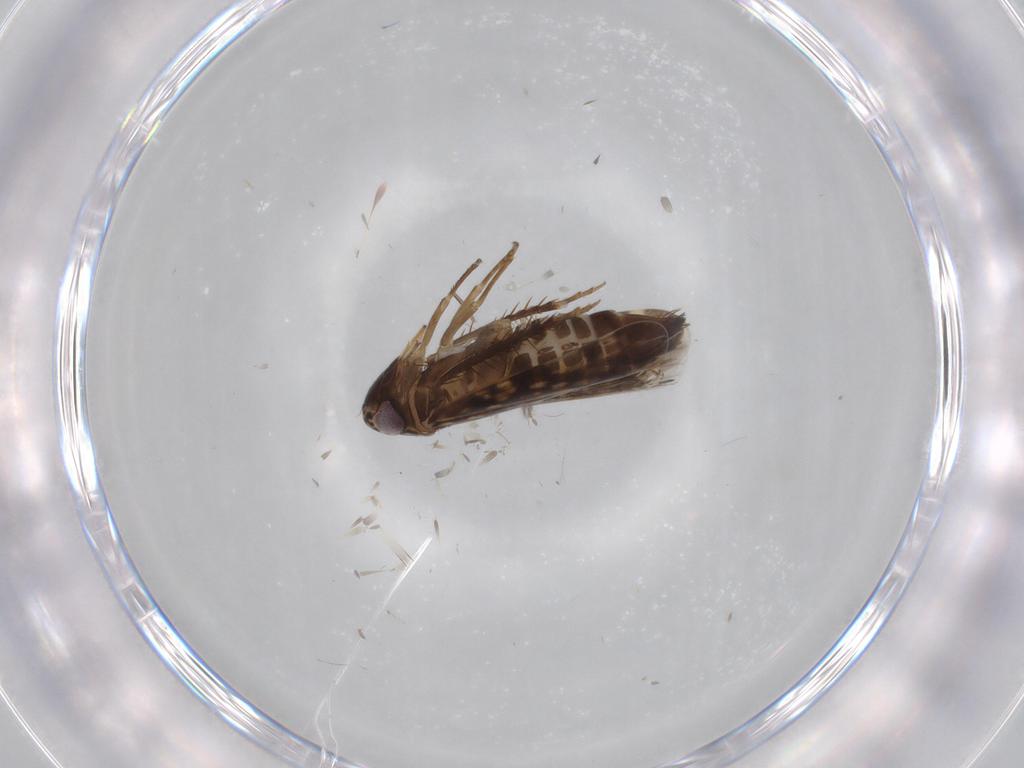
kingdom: Animalia
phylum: Arthropoda
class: Insecta
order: Hemiptera
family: Cicadellidae
